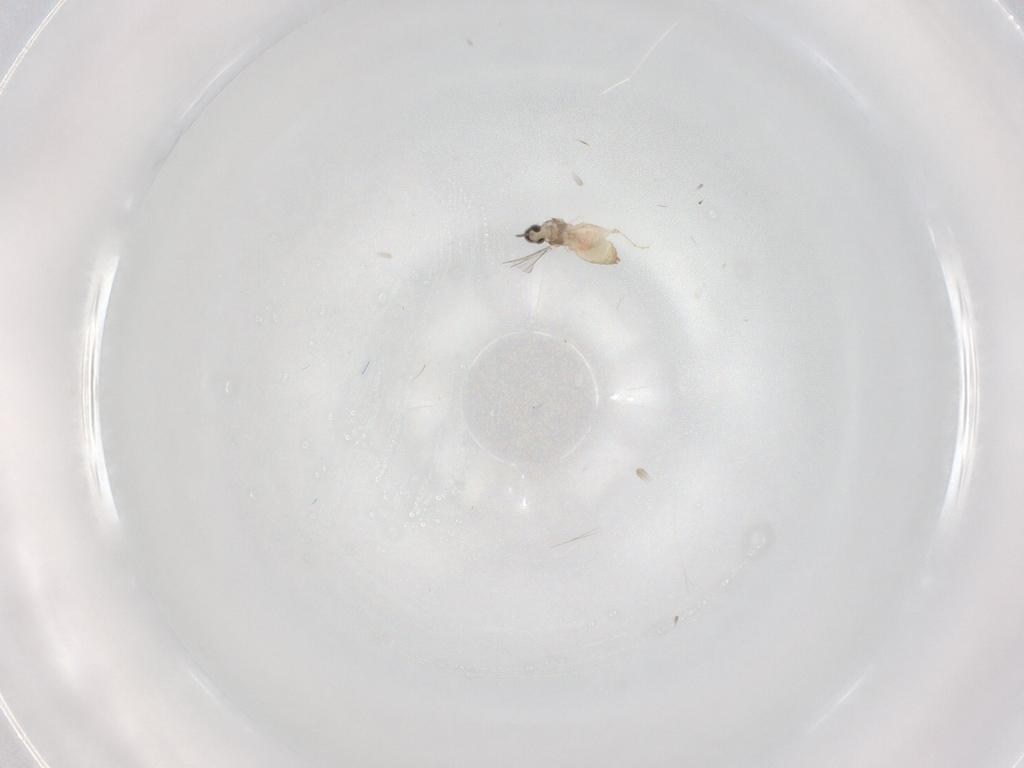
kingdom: Animalia
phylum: Arthropoda
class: Insecta
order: Diptera
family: Cecidomyiidae
